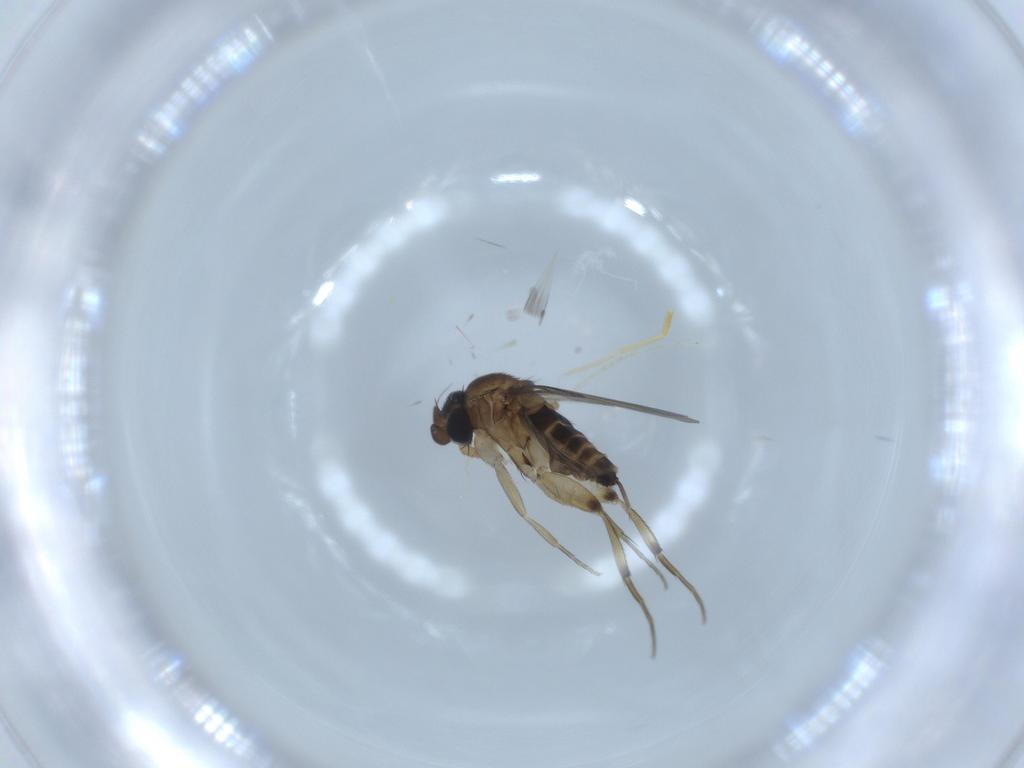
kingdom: Animalia
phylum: Arthropoda
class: Insecta
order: Diptera
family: Phoridae
